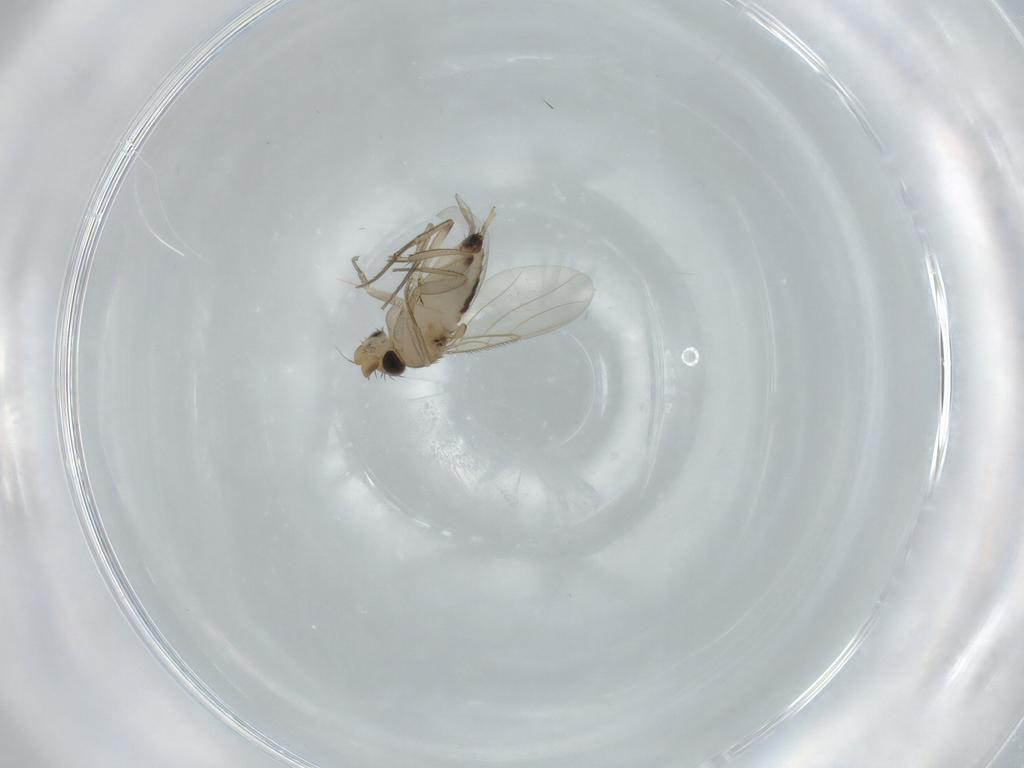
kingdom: Animalia
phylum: Arthropoda
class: Insecta
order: Diptera
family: Phoridae
